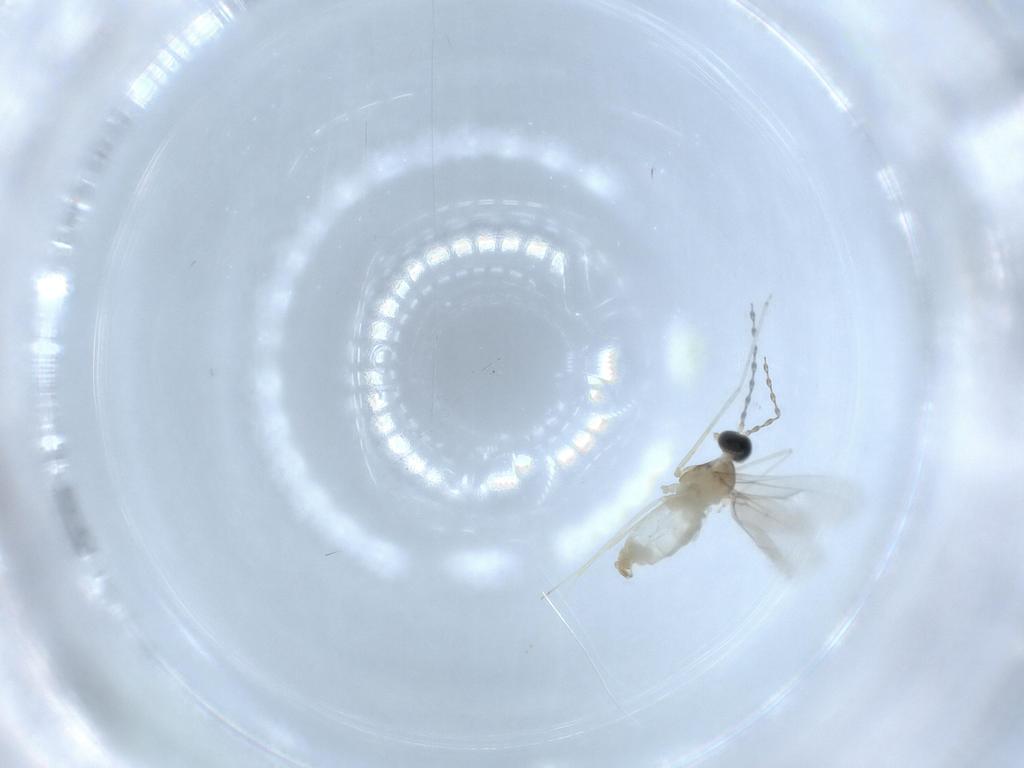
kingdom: Animalia
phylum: Arthropoda
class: Insecta
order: Diptera
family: Cecidomyiidae
